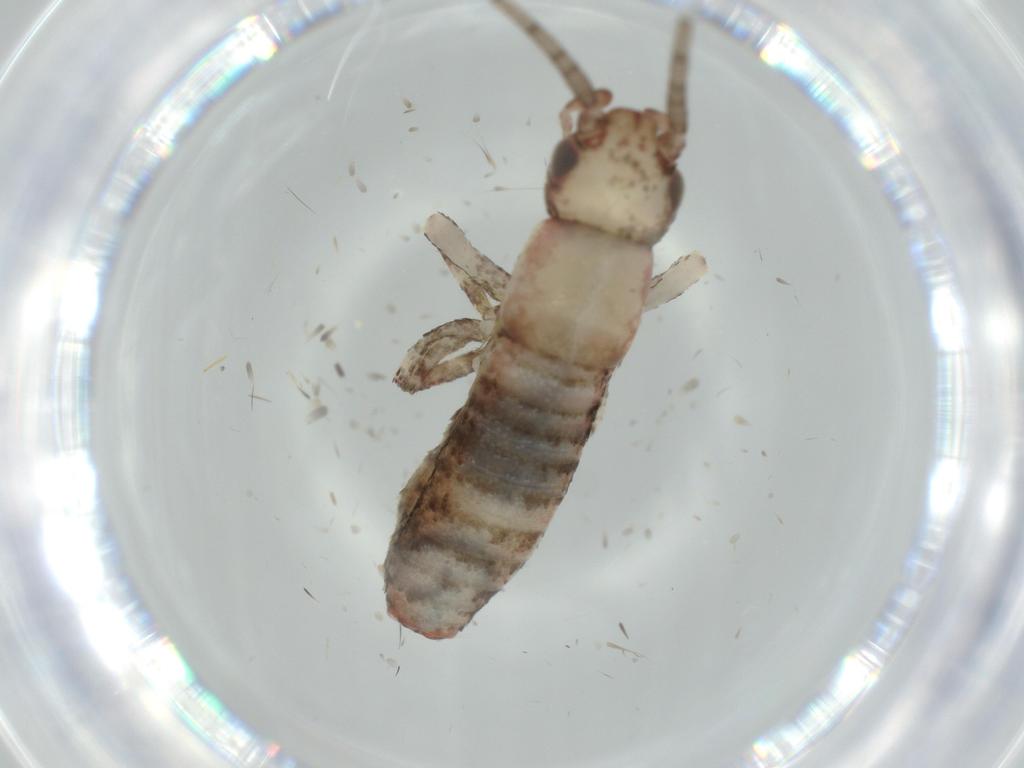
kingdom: Animalia
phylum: Arthropoda
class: Insecta
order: Orthoptera
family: Mogoplistidae
